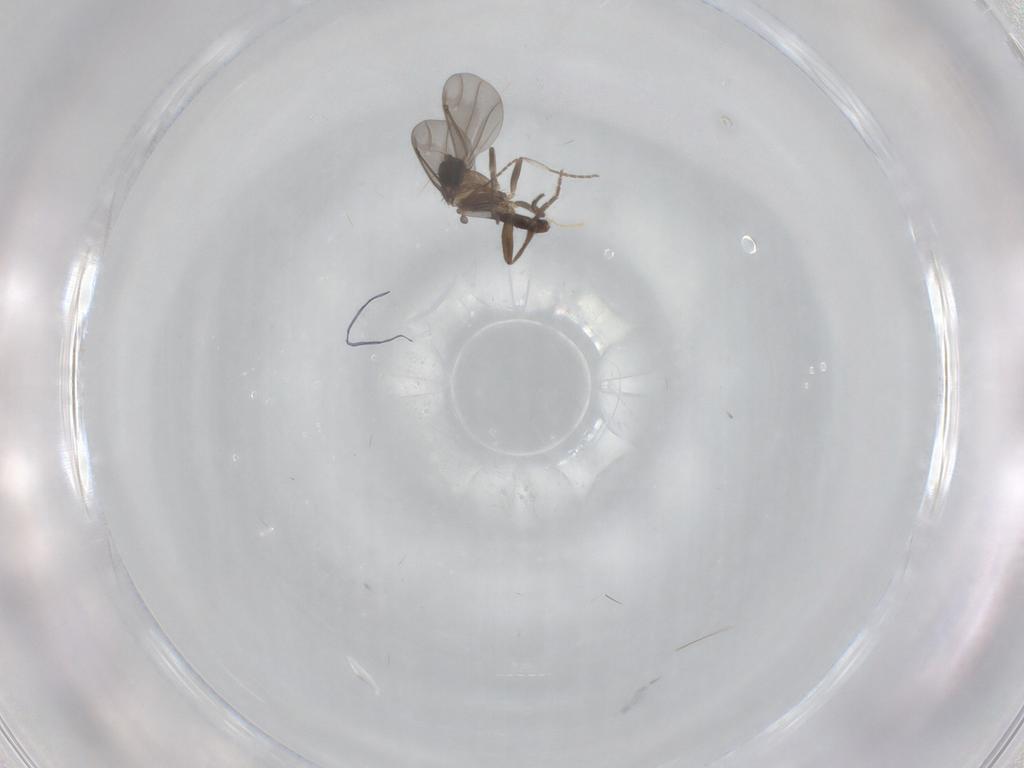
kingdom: Animalia
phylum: Arthropoda
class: Insecta
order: Diptera
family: Phoridae
